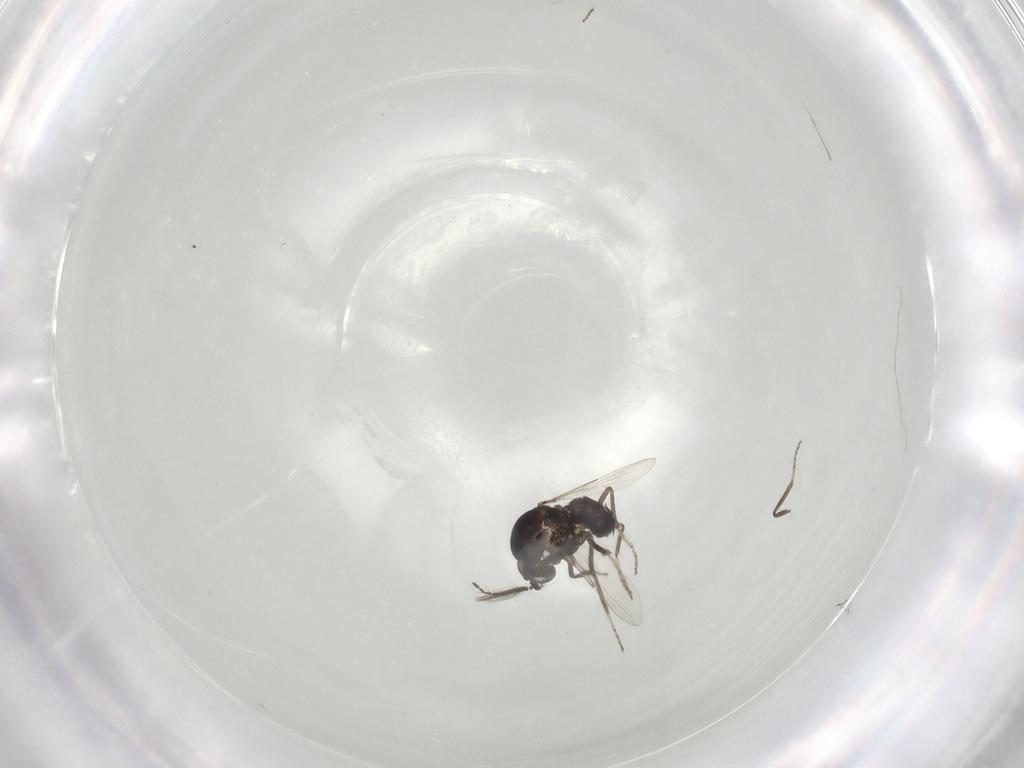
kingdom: Animalia
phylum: Arthropoda
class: Insecta
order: Diptera
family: Ceratopogonidae
